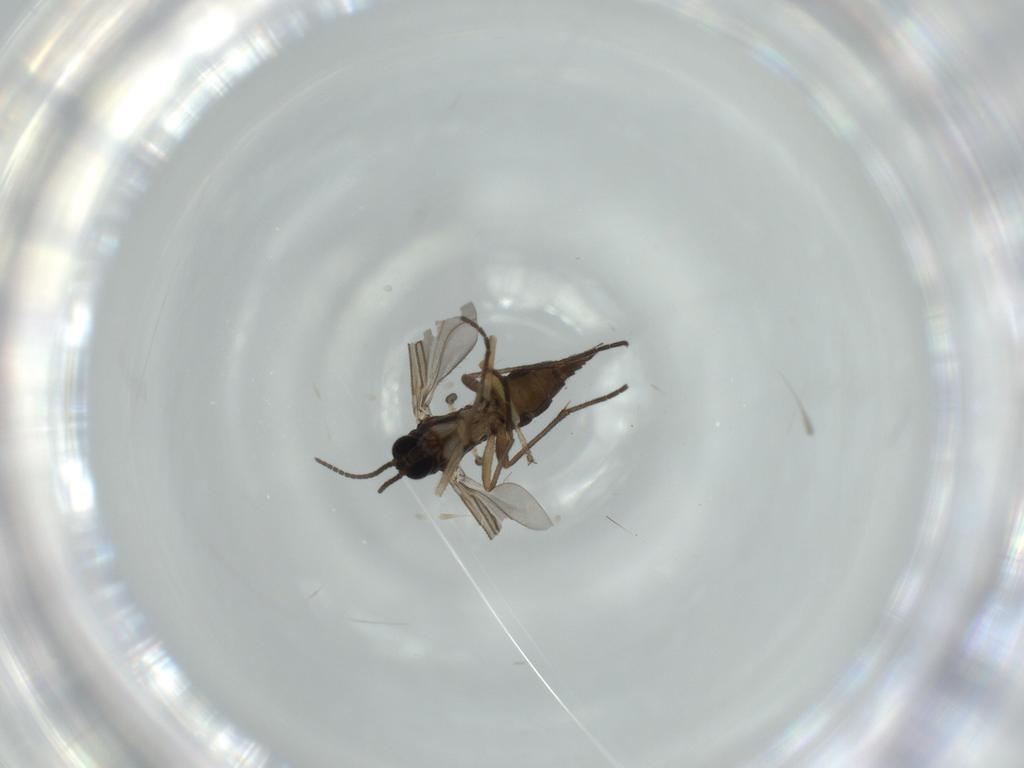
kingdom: Animalia
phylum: Arthropoda
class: Insecta
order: Diptera
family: Sciaridae
